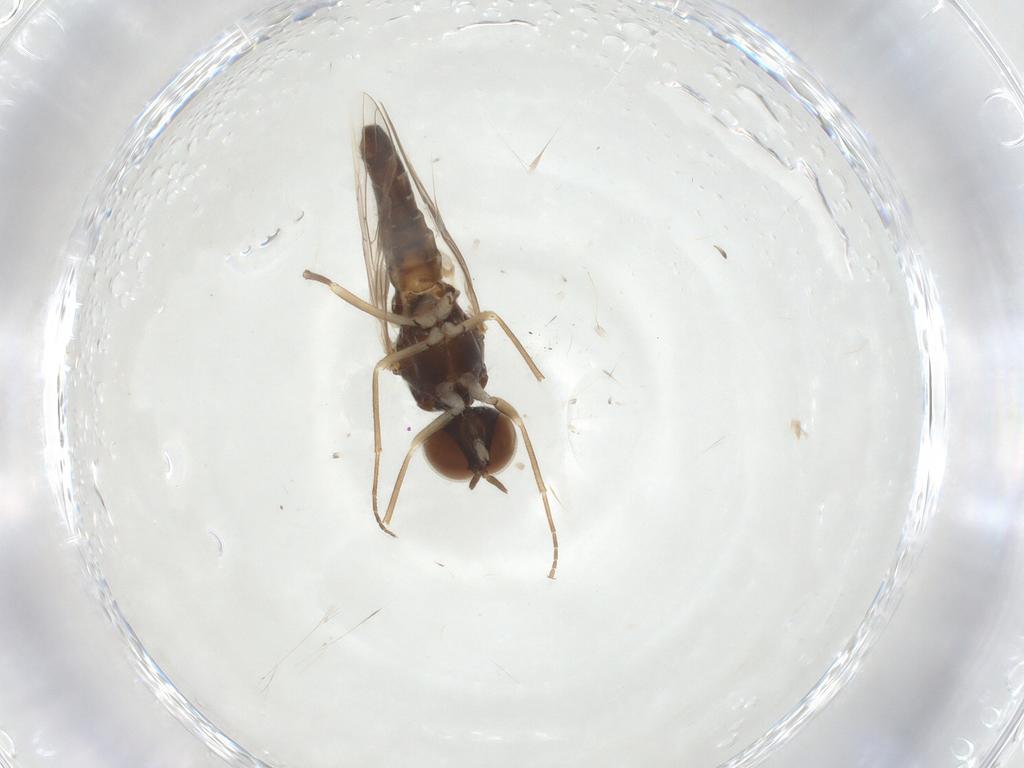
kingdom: Animalia
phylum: Arthropoda
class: Insecta
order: Diptera
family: Scenopinidae
